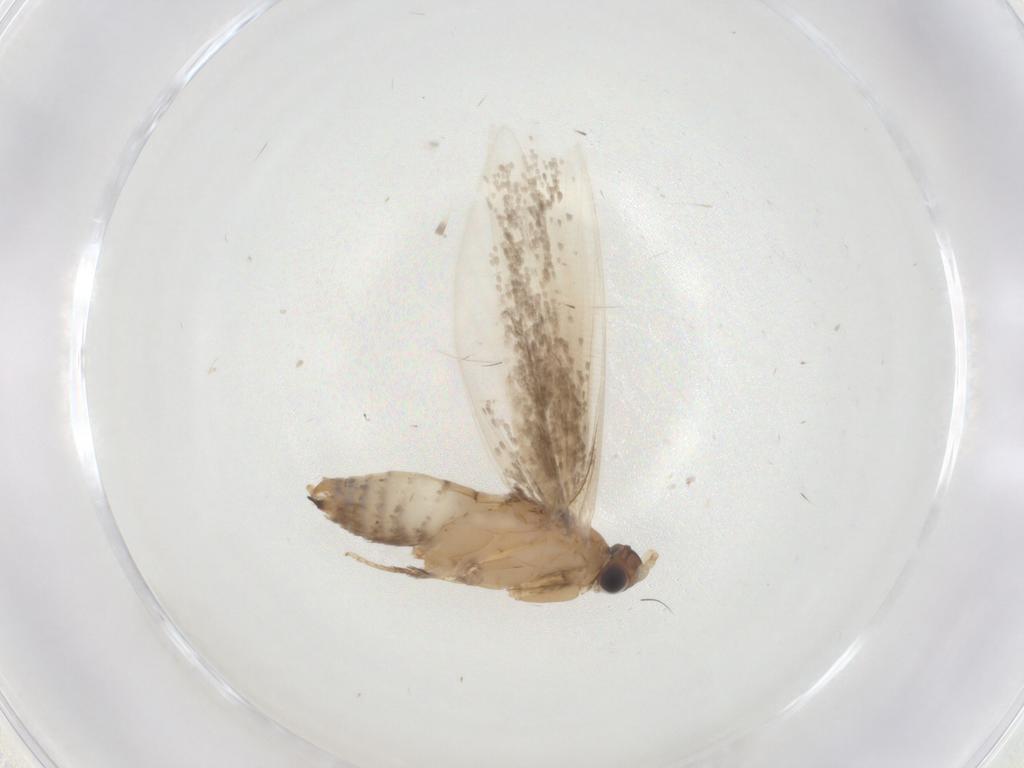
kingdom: Animalia
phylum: Arthropoda
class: Insecta
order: Lepidoptera
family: Tineidae
